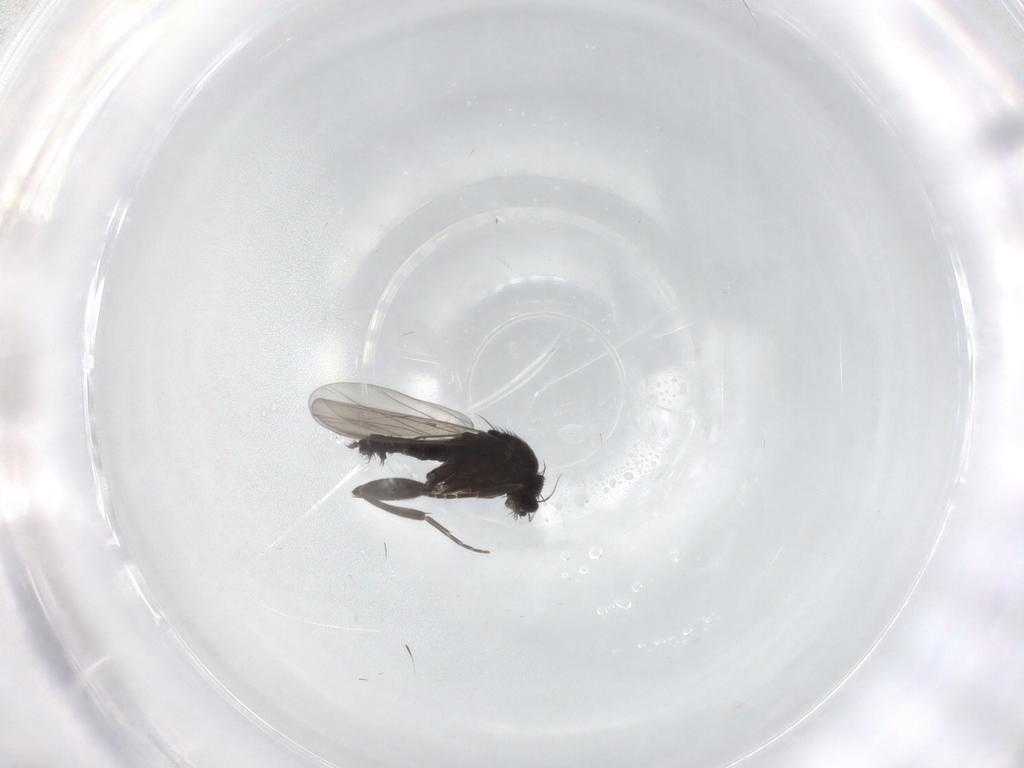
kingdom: Animalia
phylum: Arthropoda
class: Insecta
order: Diptera
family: Phoridae
